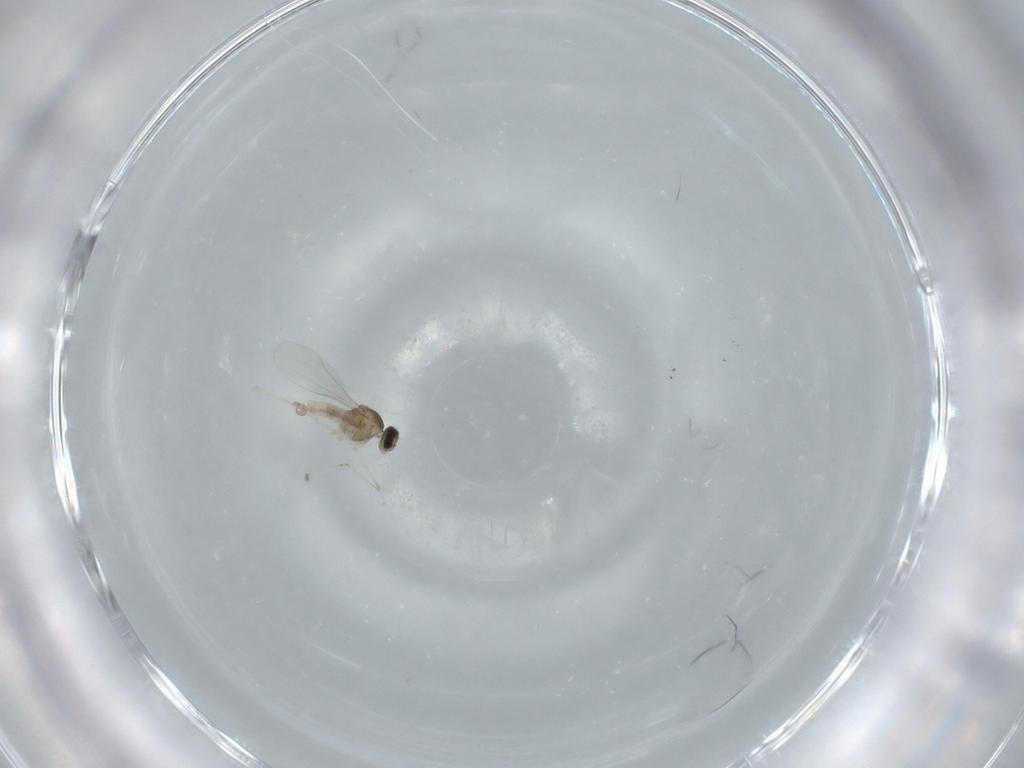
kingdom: Animalia
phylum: Arthropoda
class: Insecta
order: Diptera
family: Cecidomyiidae
